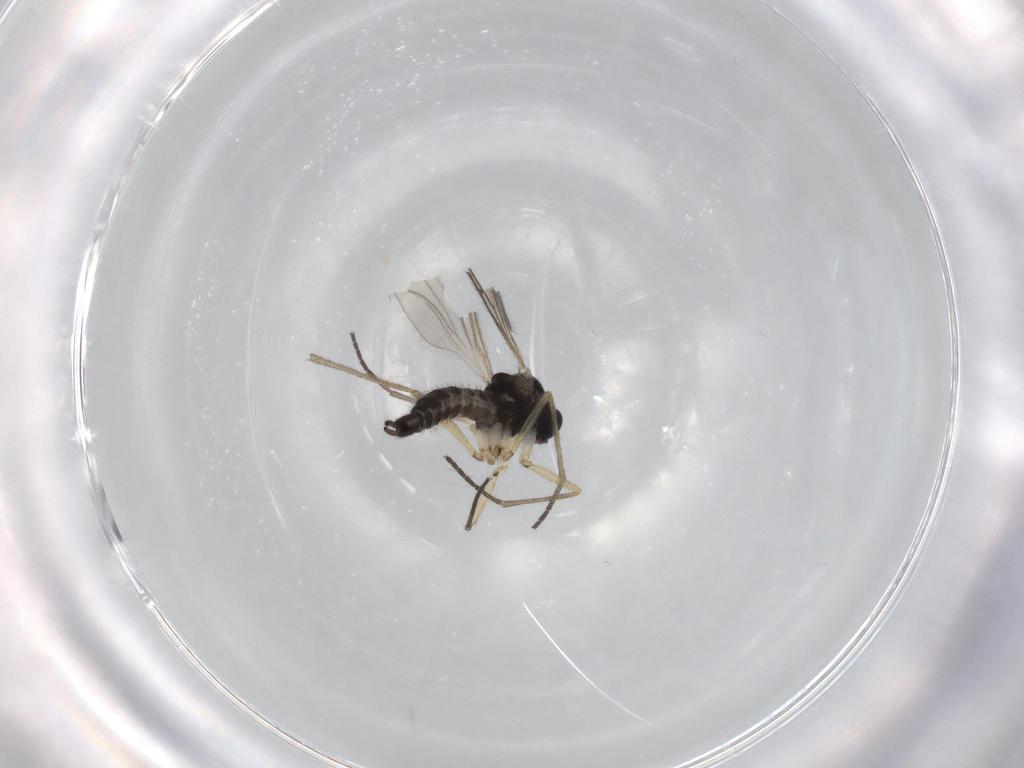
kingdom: Animalia
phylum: Arthropoda
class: Insecta
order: Diptera
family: Sciaridae
